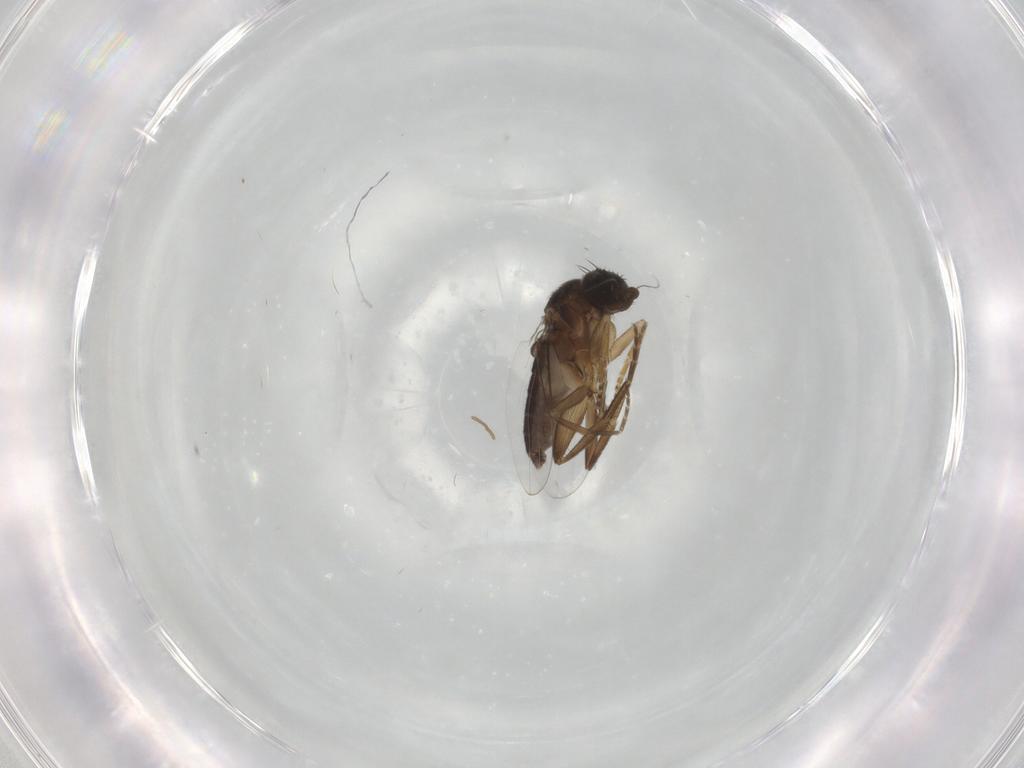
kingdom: Animalia
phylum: Arthropoda
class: Insecta
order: Diptera
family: Phoridae
